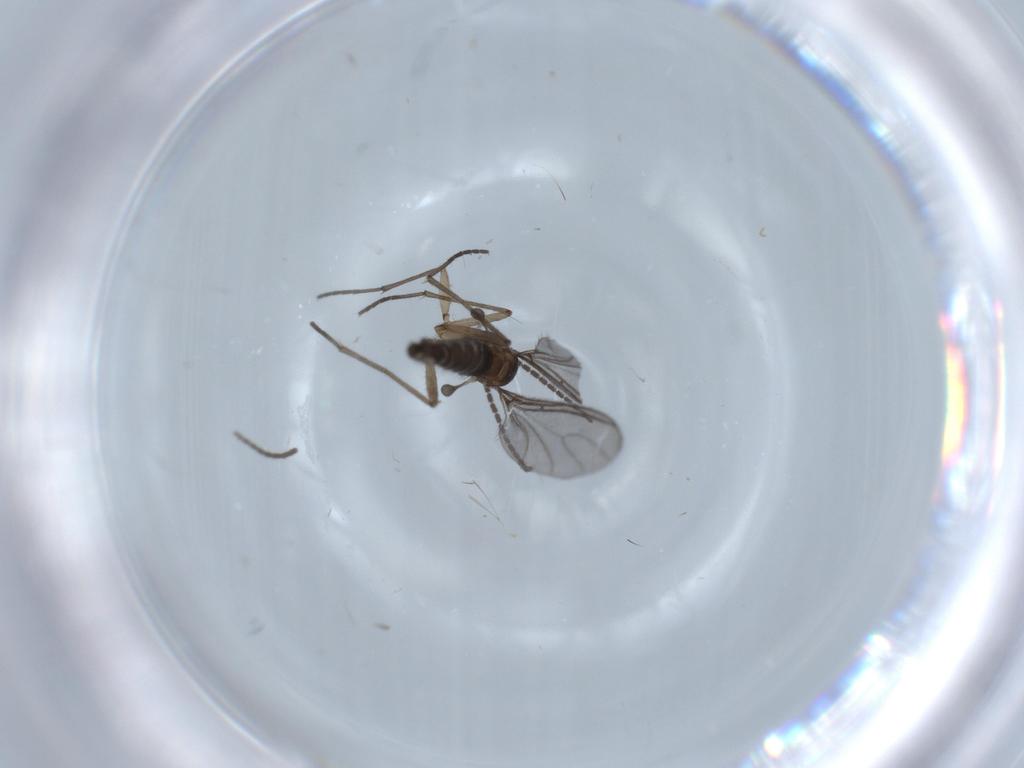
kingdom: Animalia
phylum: Arthropoda
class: Insecta
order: Diptera
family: Sciaridae
